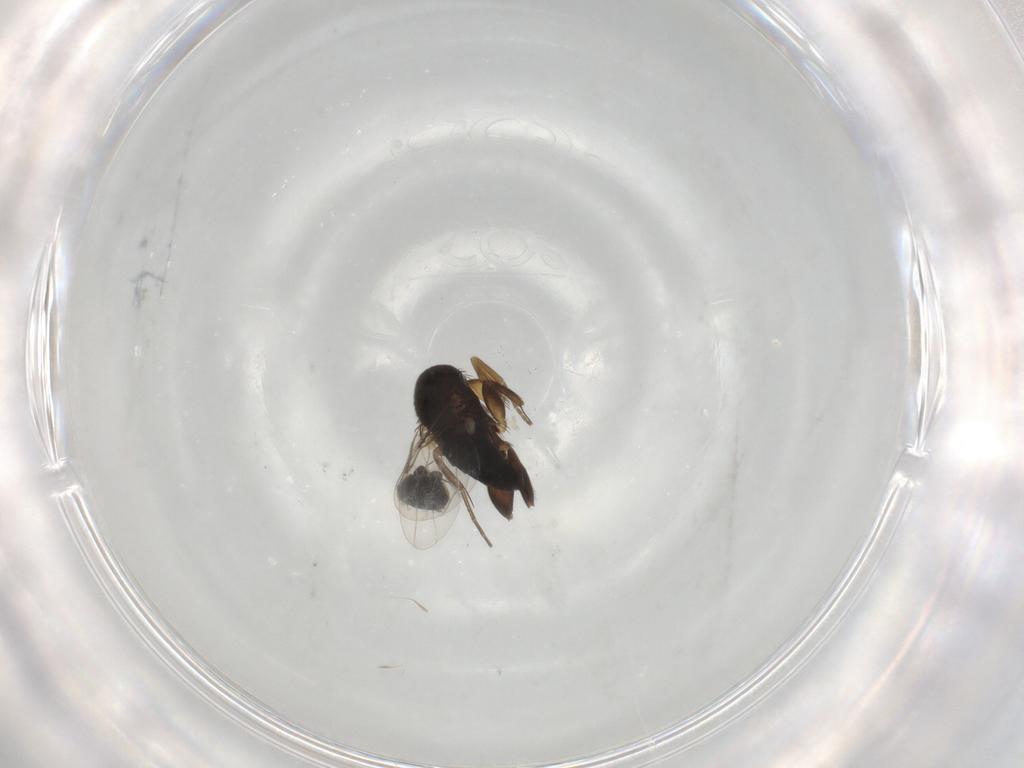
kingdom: Animalia
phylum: Arthropoda
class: Insecta
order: Diptera
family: Phoridae
